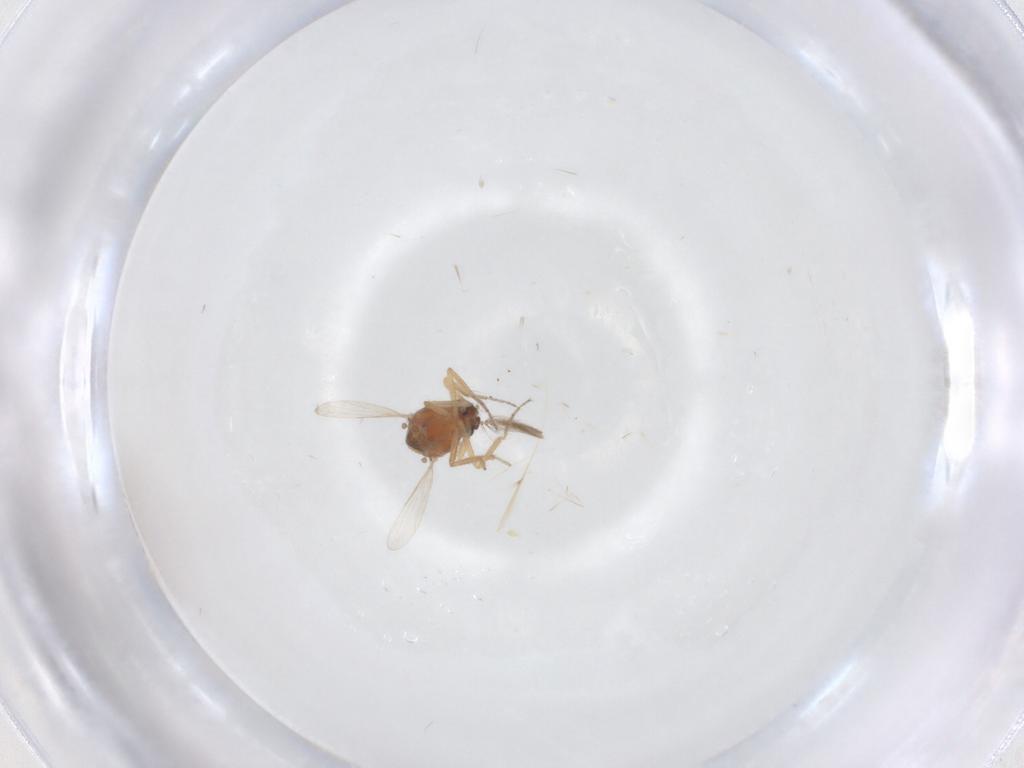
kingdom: Animalia
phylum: Arthropoda
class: Insecta
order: Diptera
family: Ceratopogonidae
